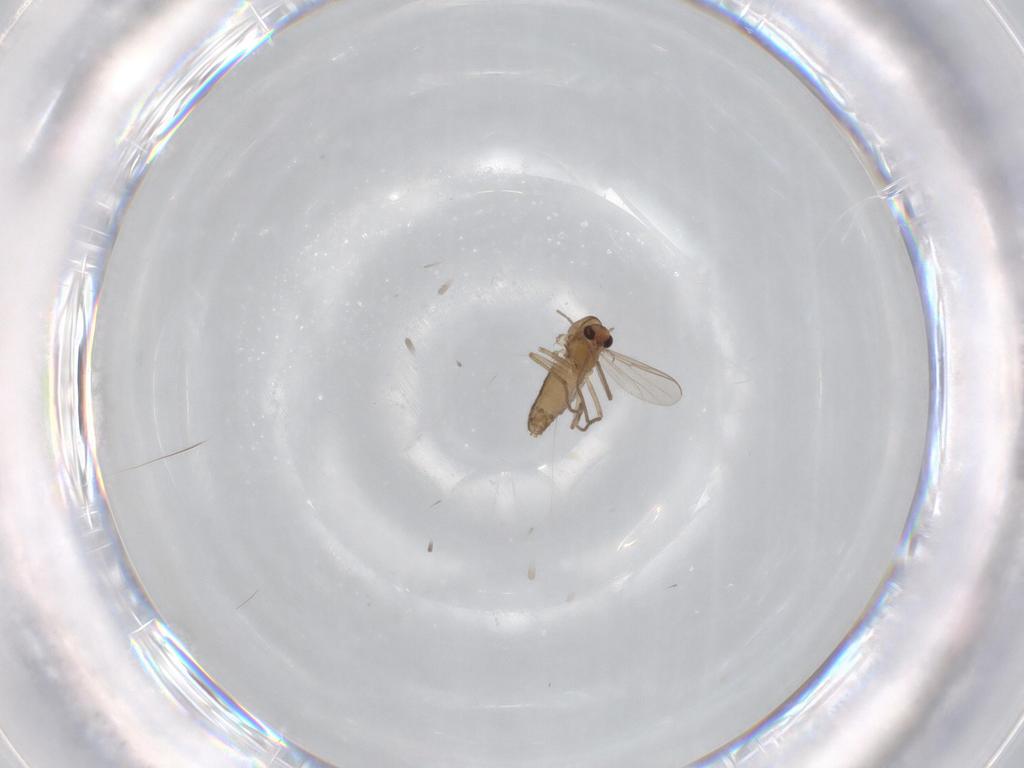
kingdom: Animalia
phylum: Arthropoda
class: Insecta
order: Diptera
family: Chironomidae
